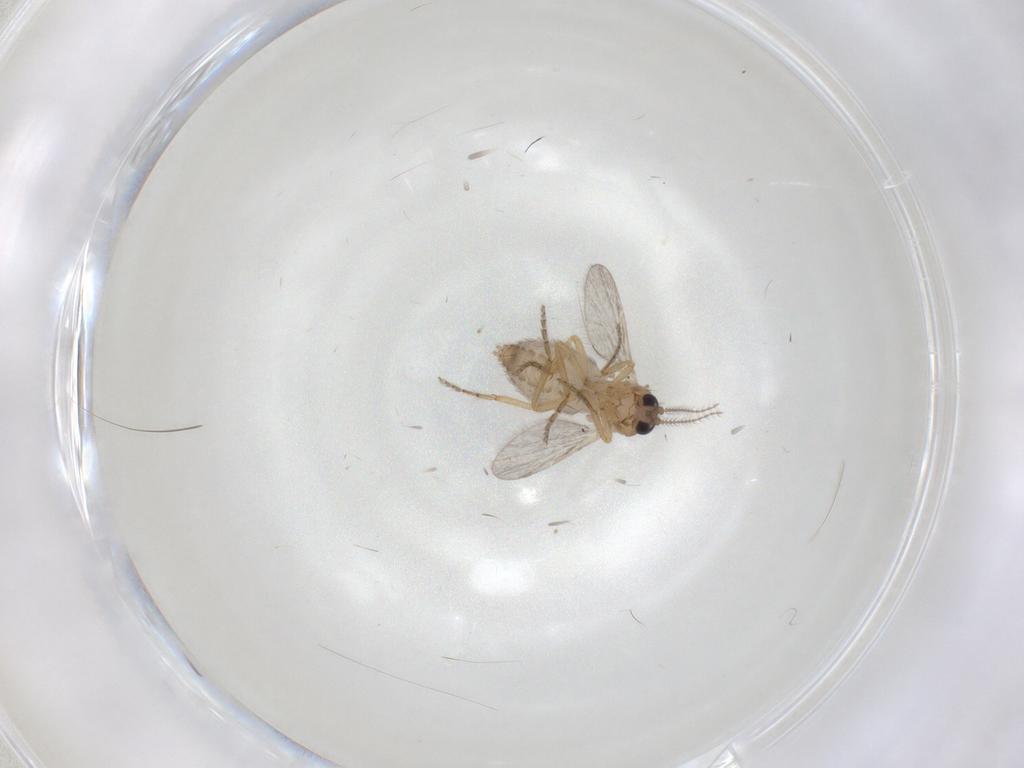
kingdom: Animalia
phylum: Arthropoda
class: Insecta
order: Diptera
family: Ceratopogonidae
